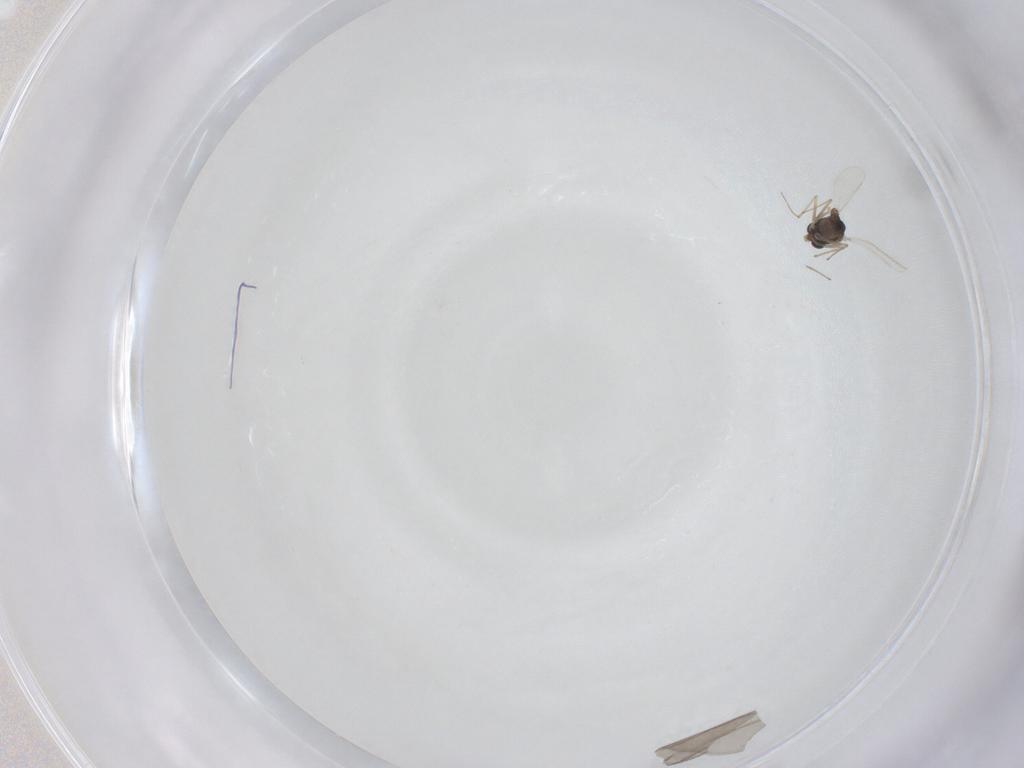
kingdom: Animalia
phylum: Arthropoda
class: Insecta
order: Diptera
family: Chironomidae
